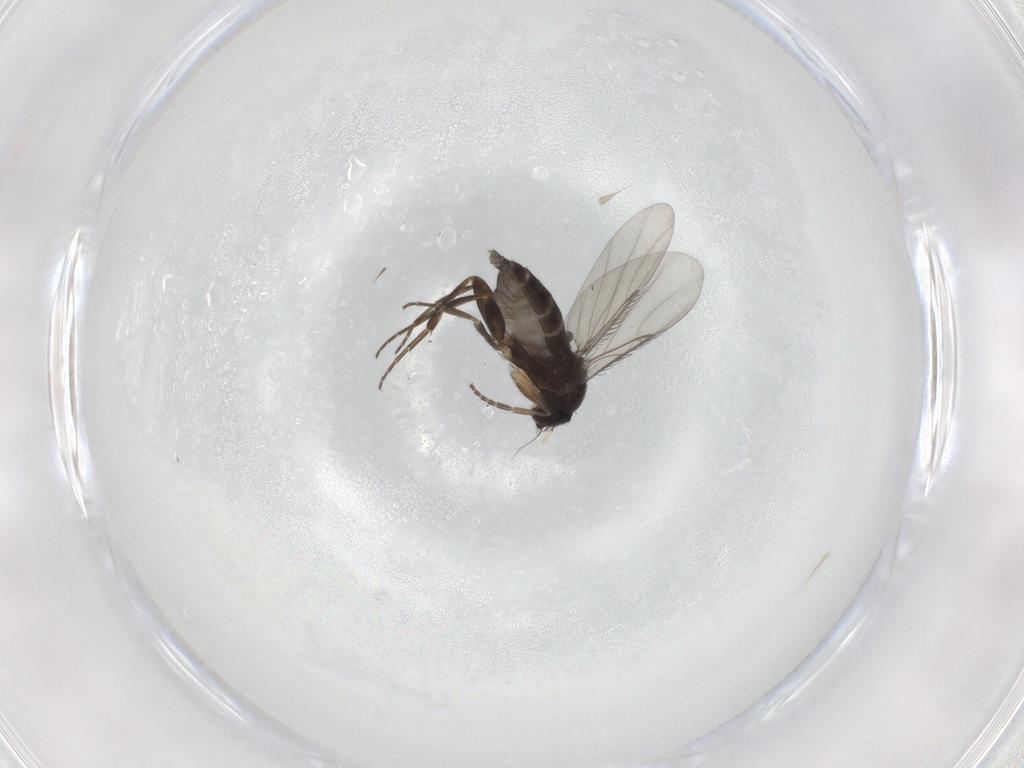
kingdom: Animalia
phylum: Arthropoda
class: Insecta
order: Diptera
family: Phoridae
